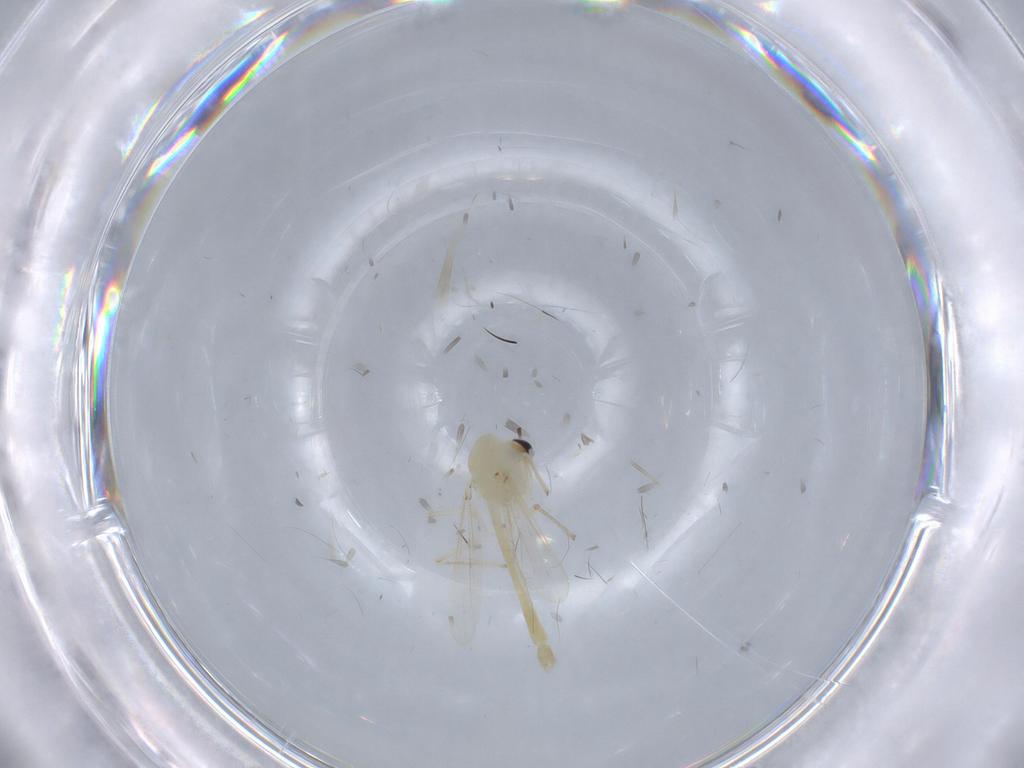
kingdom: Animalia
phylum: Arthropoda
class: Insecta
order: Diptera
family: Chironomidae
